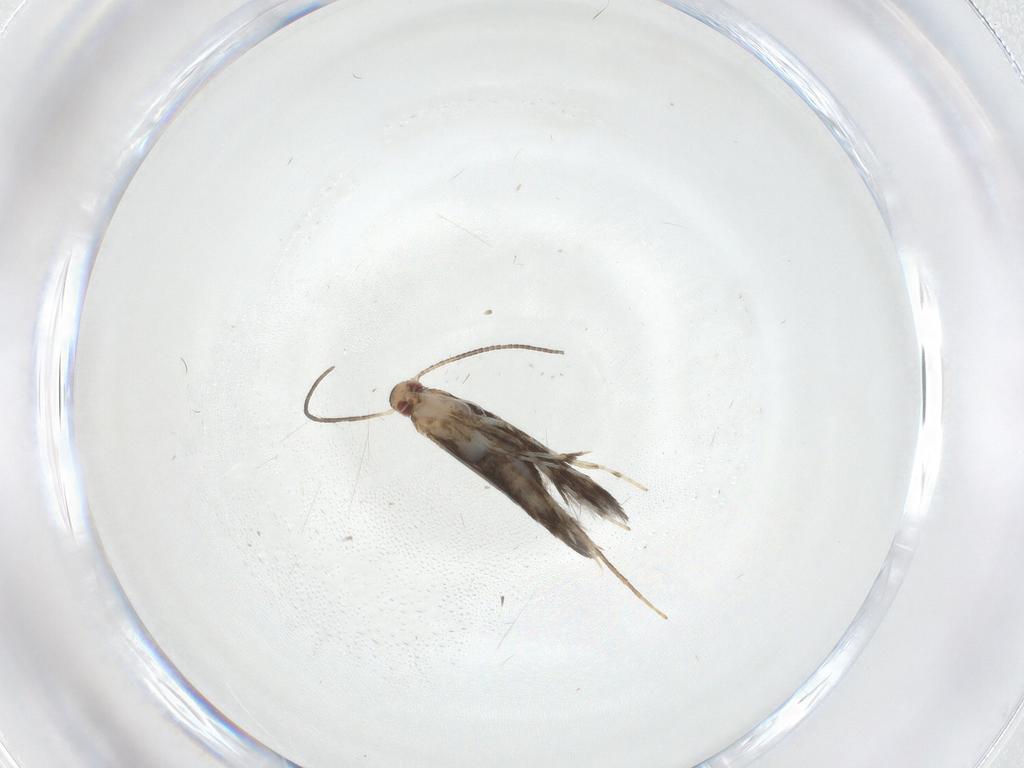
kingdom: Animalia
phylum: Arthropoda
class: Insecta
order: Lepidoptera
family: Gracillariidae
